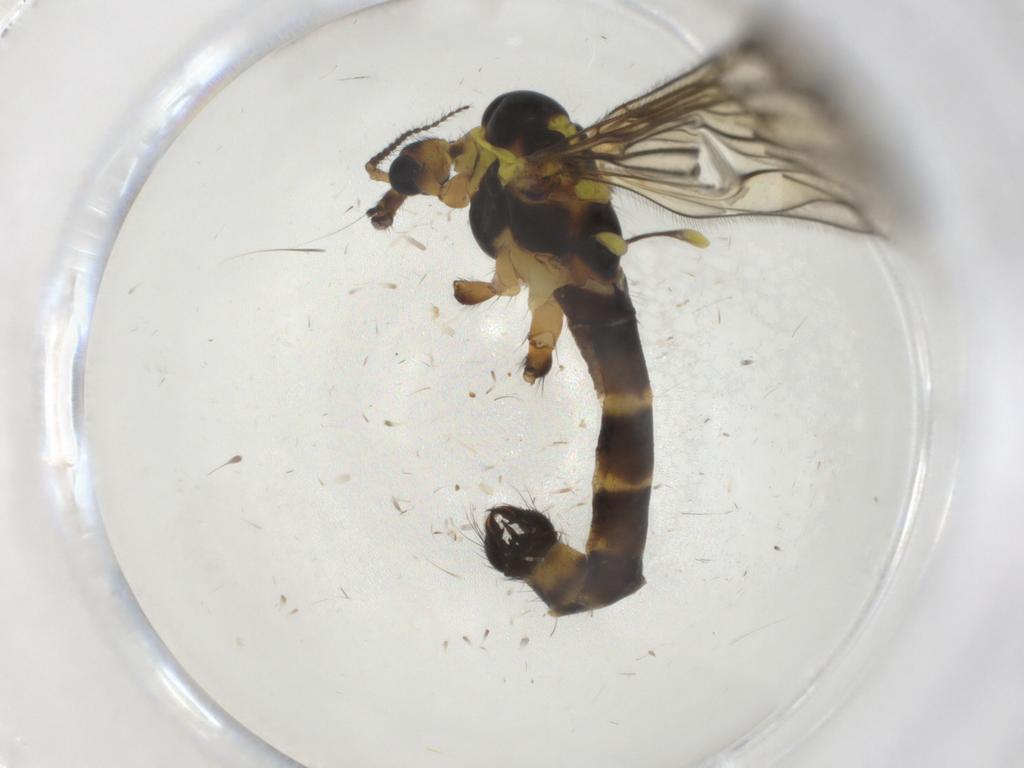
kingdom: Animalia
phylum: Arthropoda
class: Insecta
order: Diptera
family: Limoniidae
